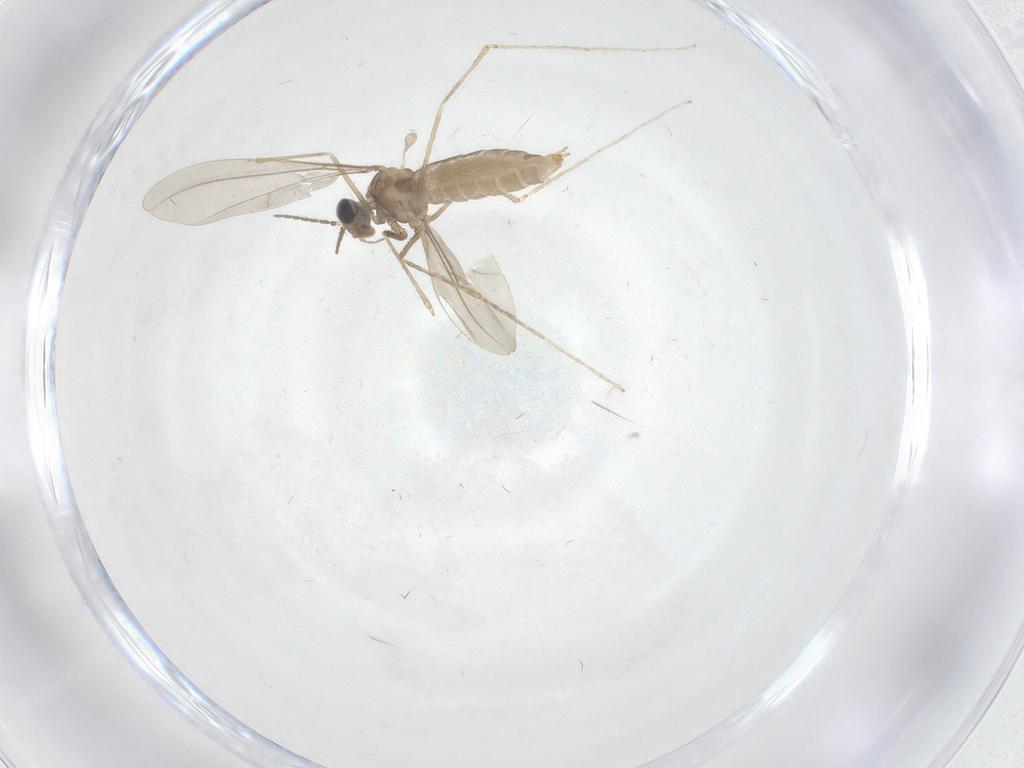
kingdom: Animalia
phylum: Arthropoda
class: Insecta
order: Diptera
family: Cecidomyiidae
